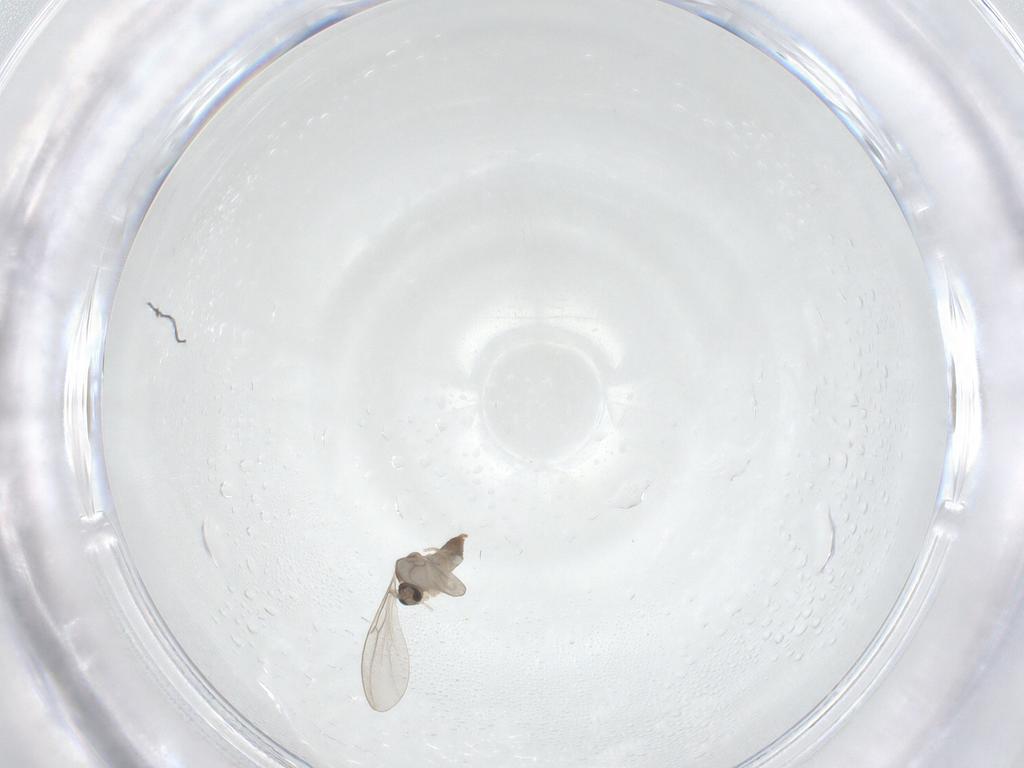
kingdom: Animalia
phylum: Arthropoda
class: Insecta
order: Diptera
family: Cecidomyiidae
